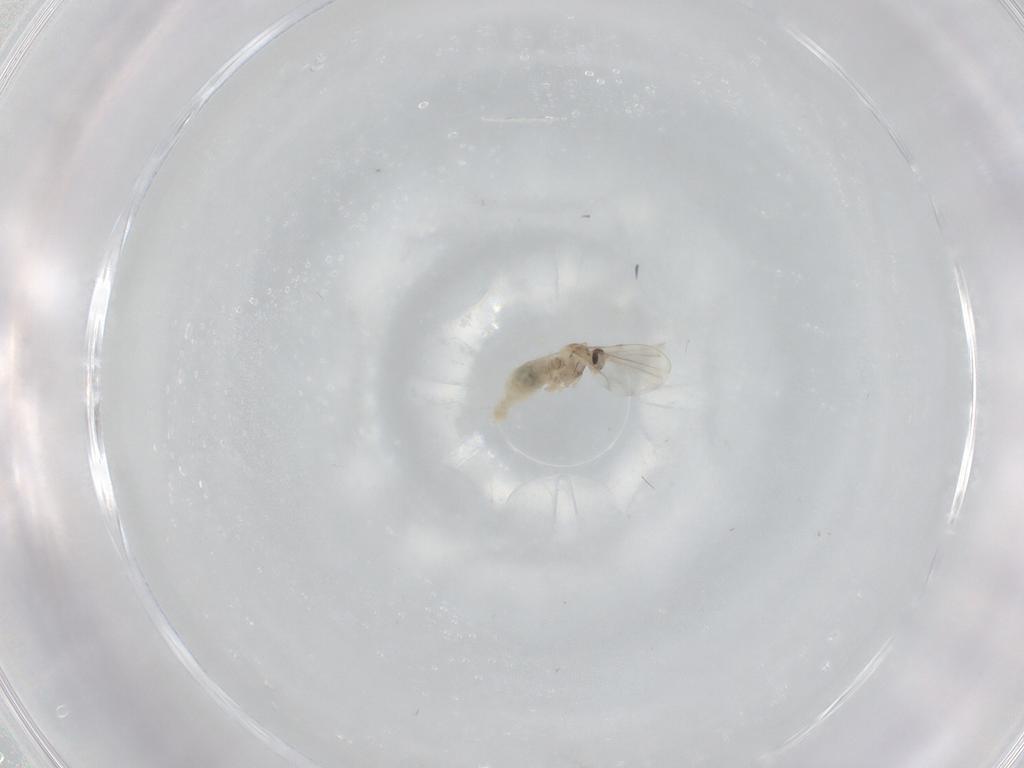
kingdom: Animalia
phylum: Arthropoda
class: Insecta
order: Diptera
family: Cecidomyiidae
